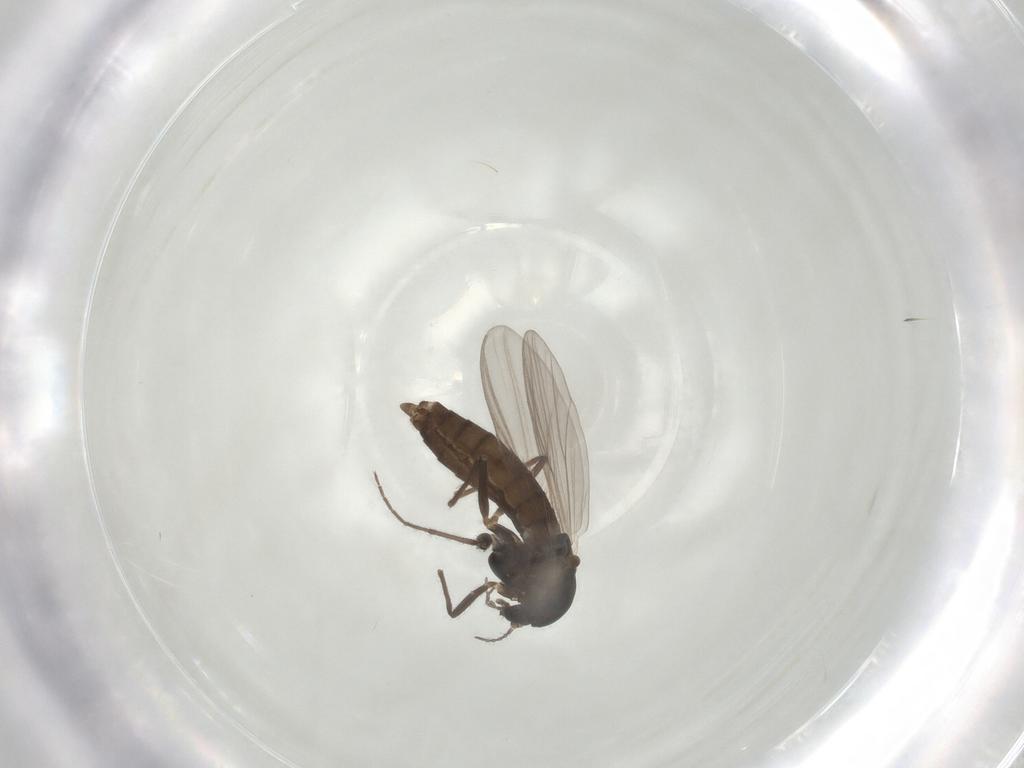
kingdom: Animalia
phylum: Arthropoda
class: Insecta
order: Diptera
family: Chironomidae
